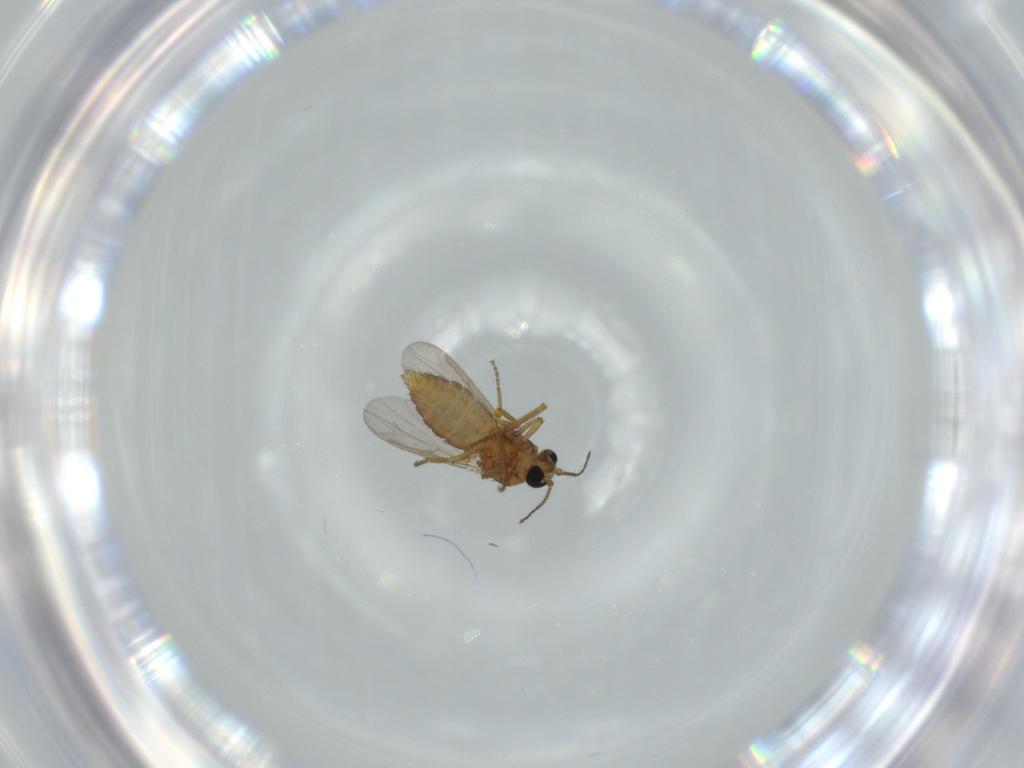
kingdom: Animalia
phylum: Arthropoda
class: Insecta
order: Diptera
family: Ceratopogonidae
